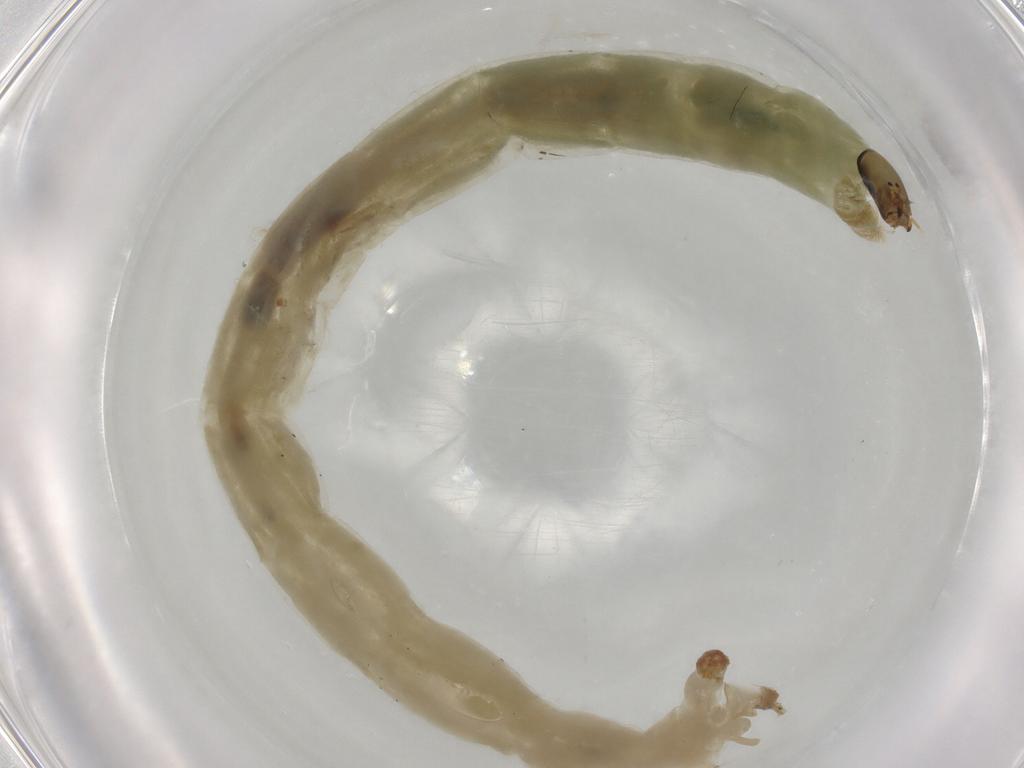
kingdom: Animalia
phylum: Arthropoda
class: Insecta
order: Diptera
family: Chironomidae
